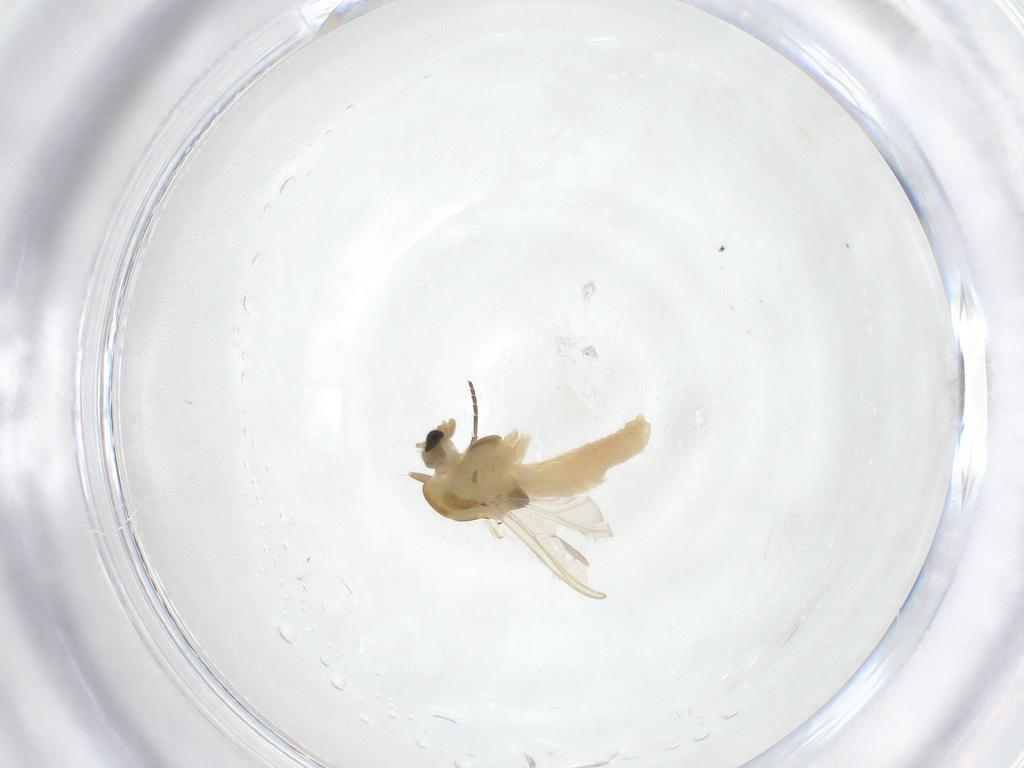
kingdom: Animalia
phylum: Arthropoda
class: Insecta
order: Diptera
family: Chironomidae
